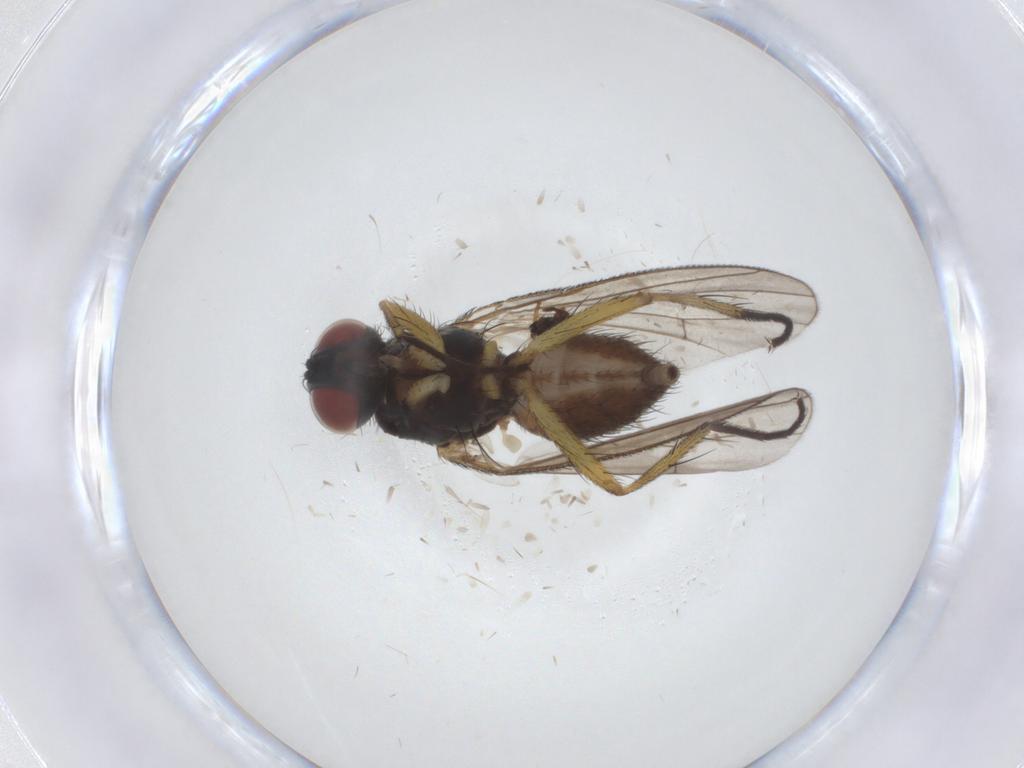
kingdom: Animalia
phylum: Arthropoda
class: Insecta
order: Diptera
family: Muscidae
